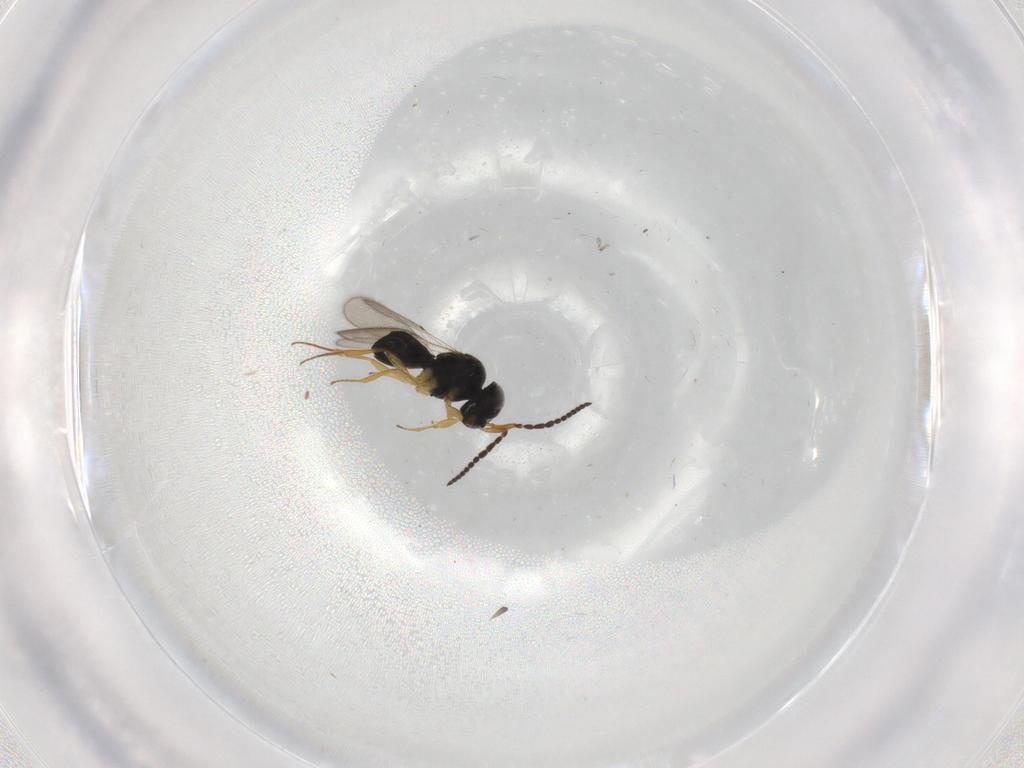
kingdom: Animalia
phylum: Arthropoda
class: Insecta
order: Hymenoptera
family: Scelionidae
